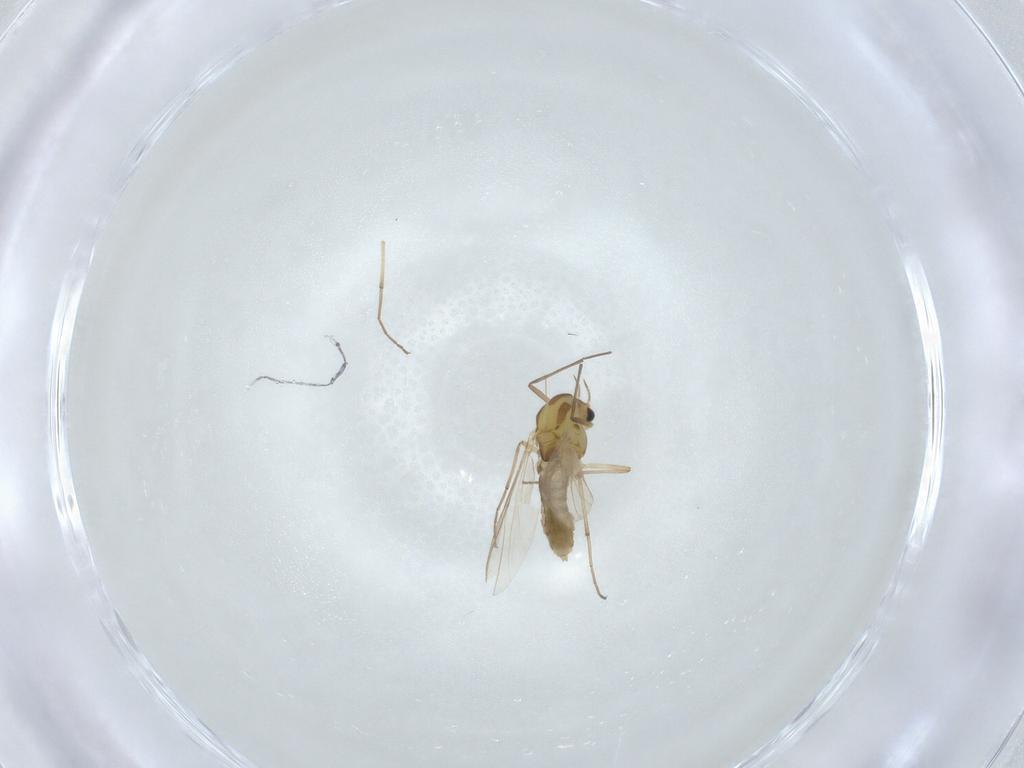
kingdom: Animalia
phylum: Arthropoda
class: Insecta
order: Diptera
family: Chironomidae
